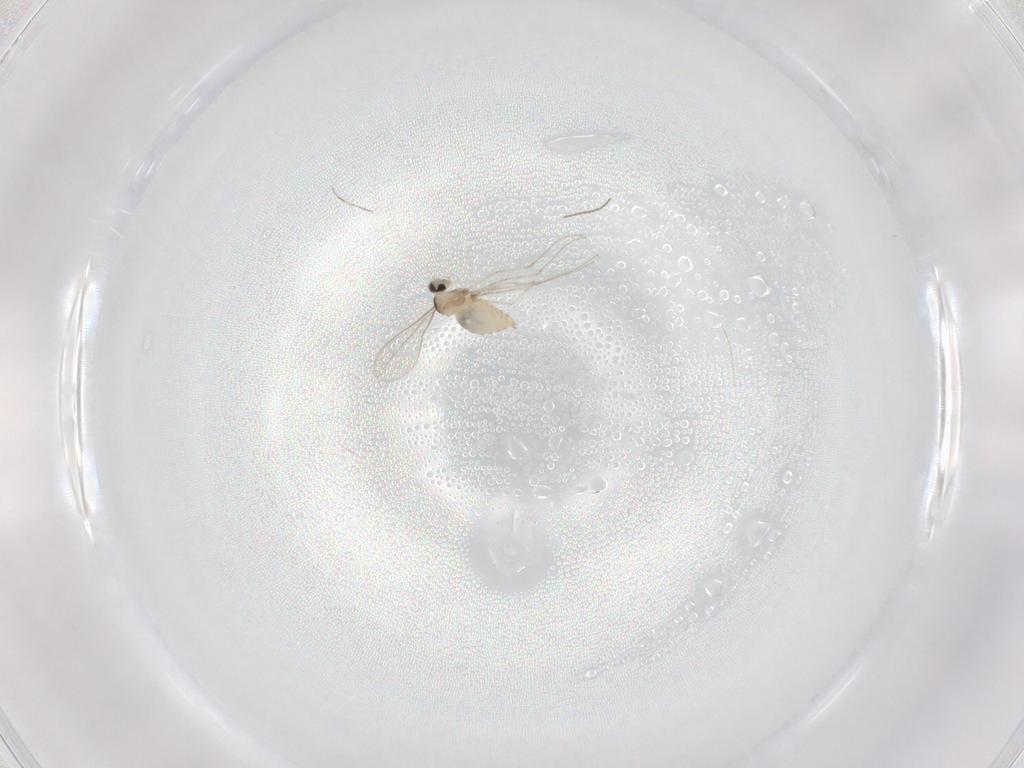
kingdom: Animalia
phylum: Arthropoda
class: Insecta
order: Diptera
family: Cecidomyiidae
